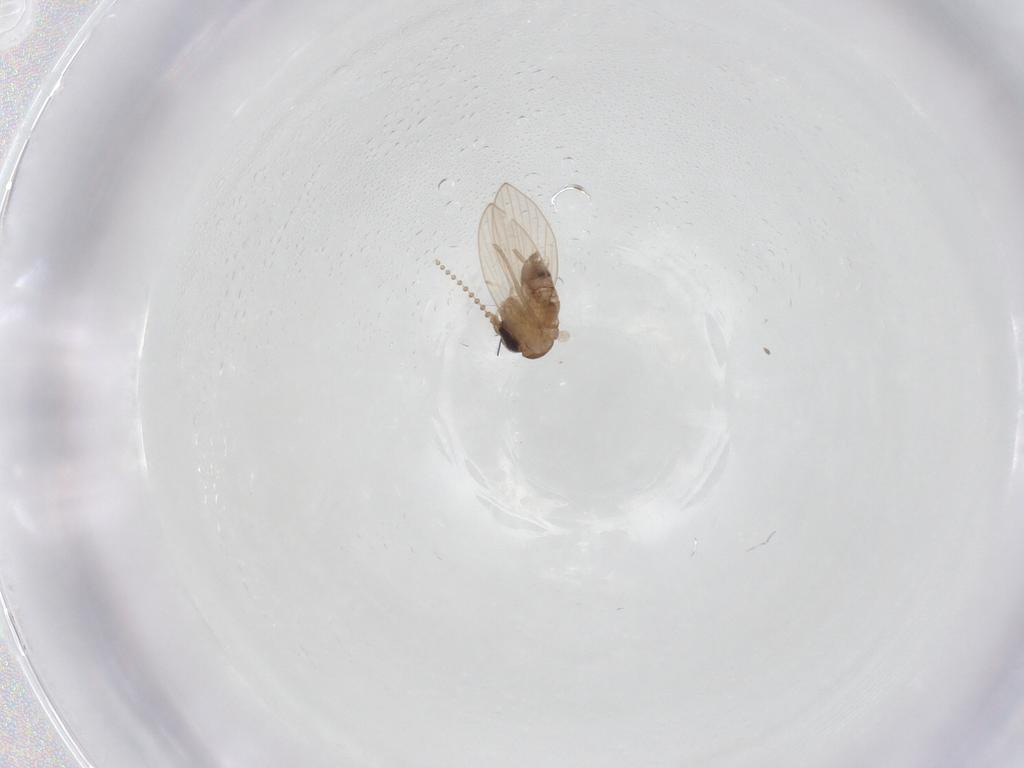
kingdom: Animalia
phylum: Arthropoda
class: Insecta
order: Diptera
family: Psychodidae
